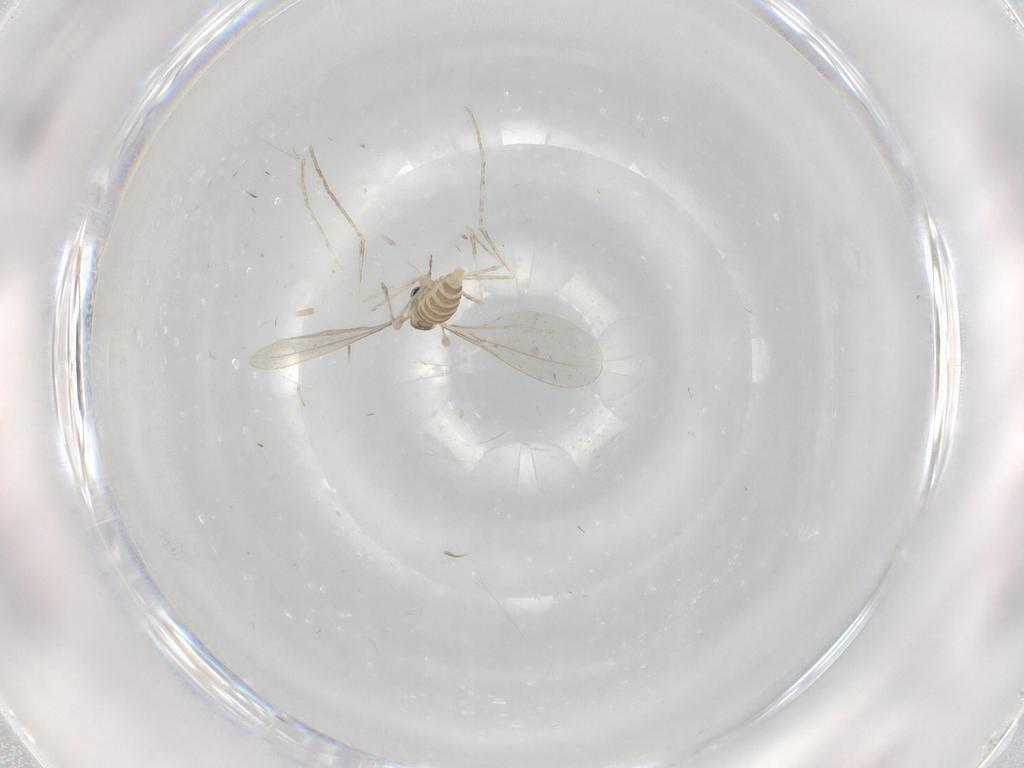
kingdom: Animalia
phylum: Arthropoda
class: Insecta
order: Diptera
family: Cecidomyiidae
